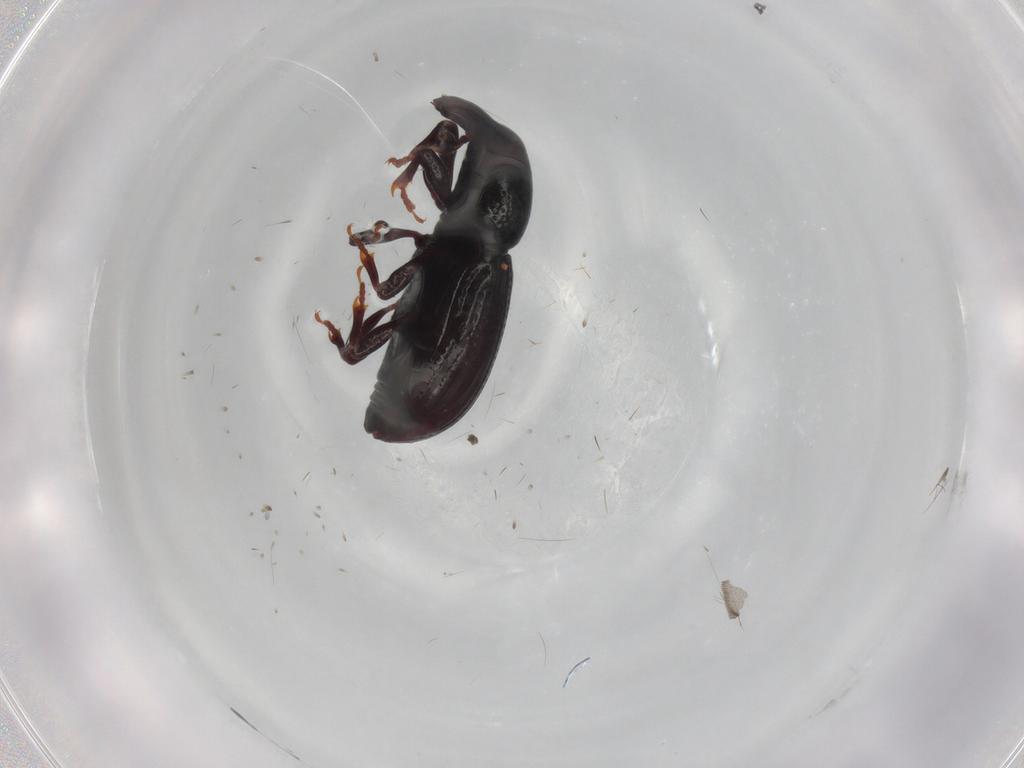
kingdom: Animalia
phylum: Arthropoda
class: Insecta
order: Coleoptera
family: Curculionidae
